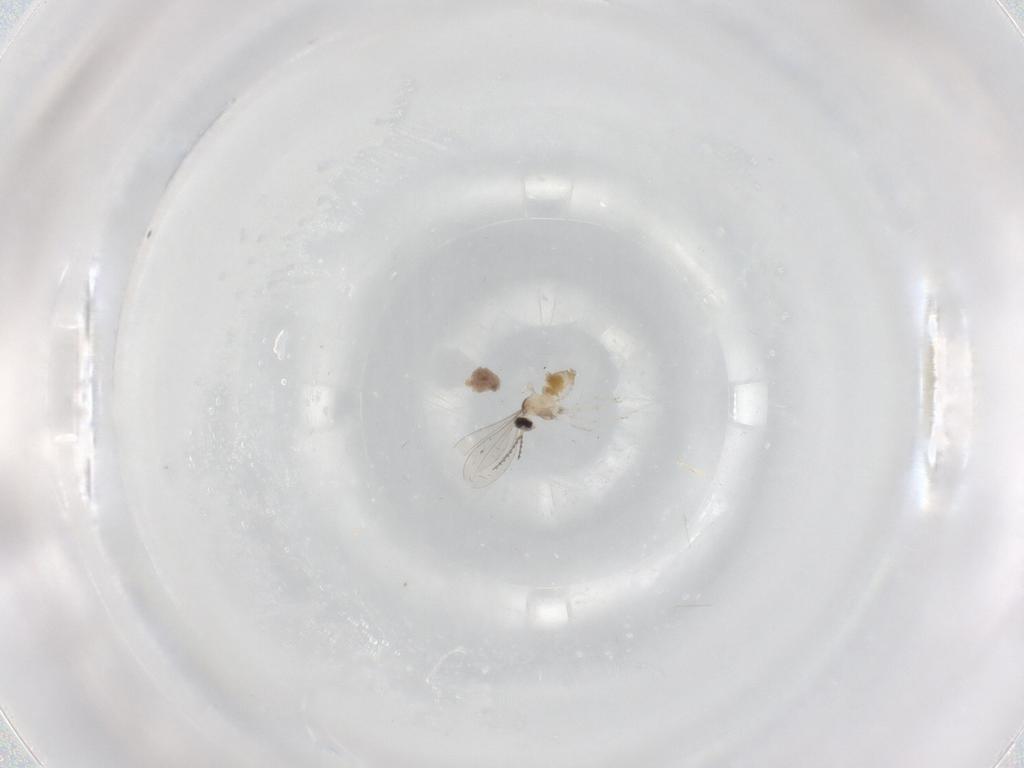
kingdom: Animalia
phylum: Arthropoda
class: Insecta
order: Diptera
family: Cecidomyiidae
